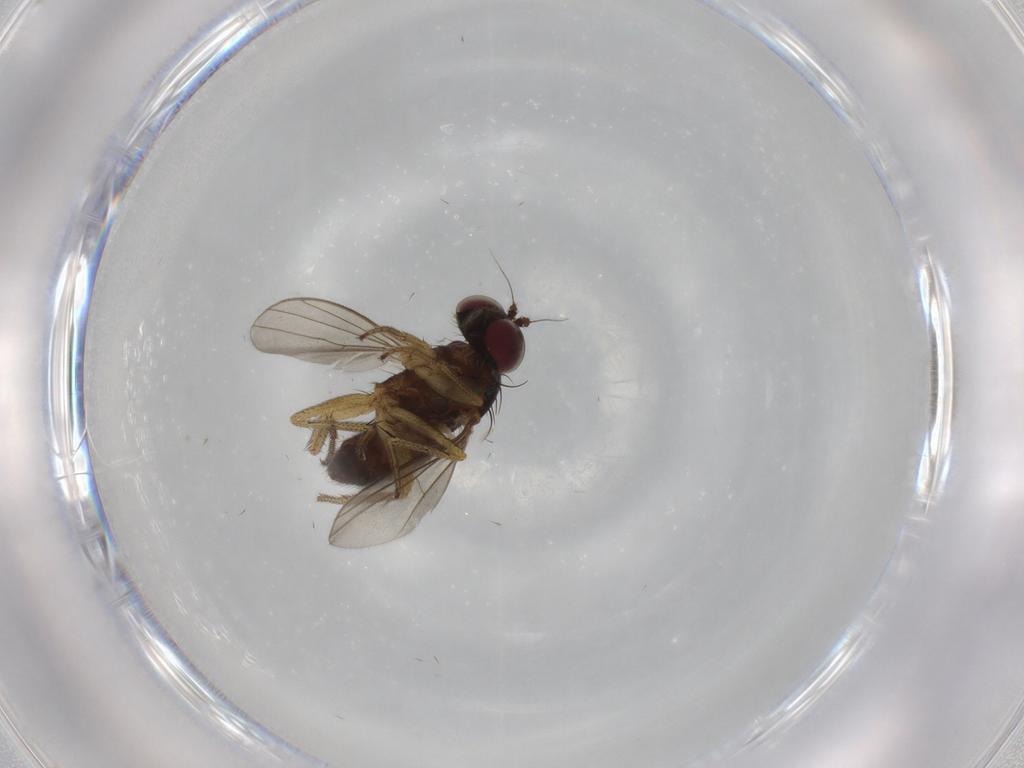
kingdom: Animalia
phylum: Arthropoda
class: Insecta
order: Diptera
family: Dolichopodidae
